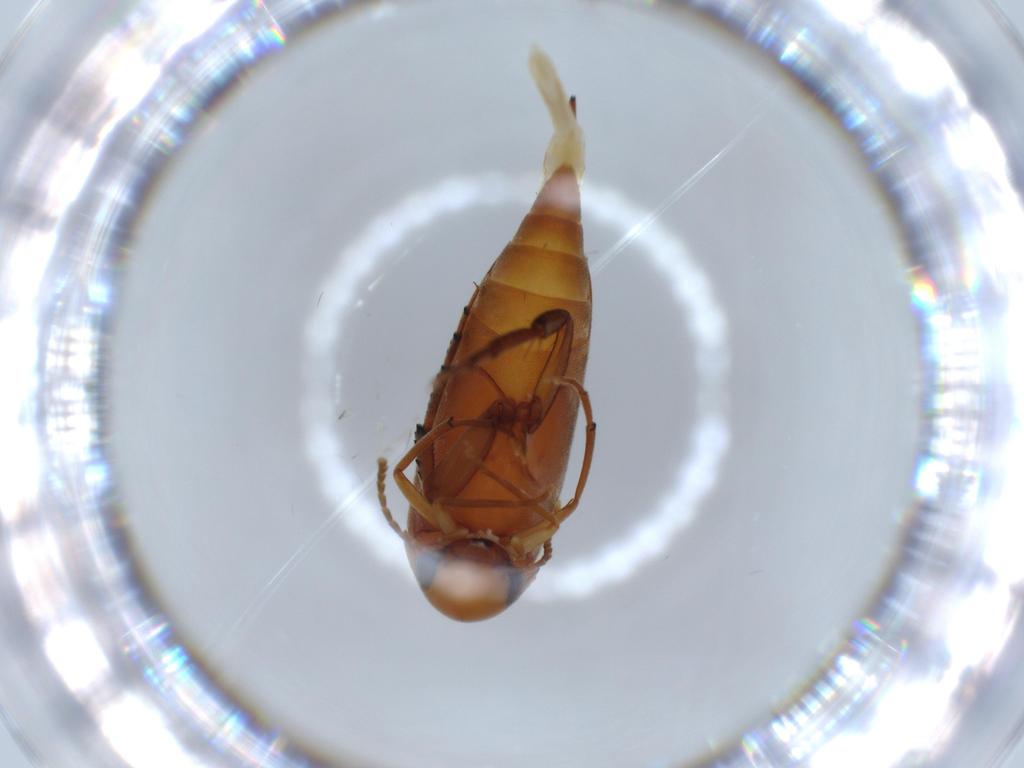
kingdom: Animalia
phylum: Arthropoda
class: Insecta
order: Coleoptera
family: Mordellidae
